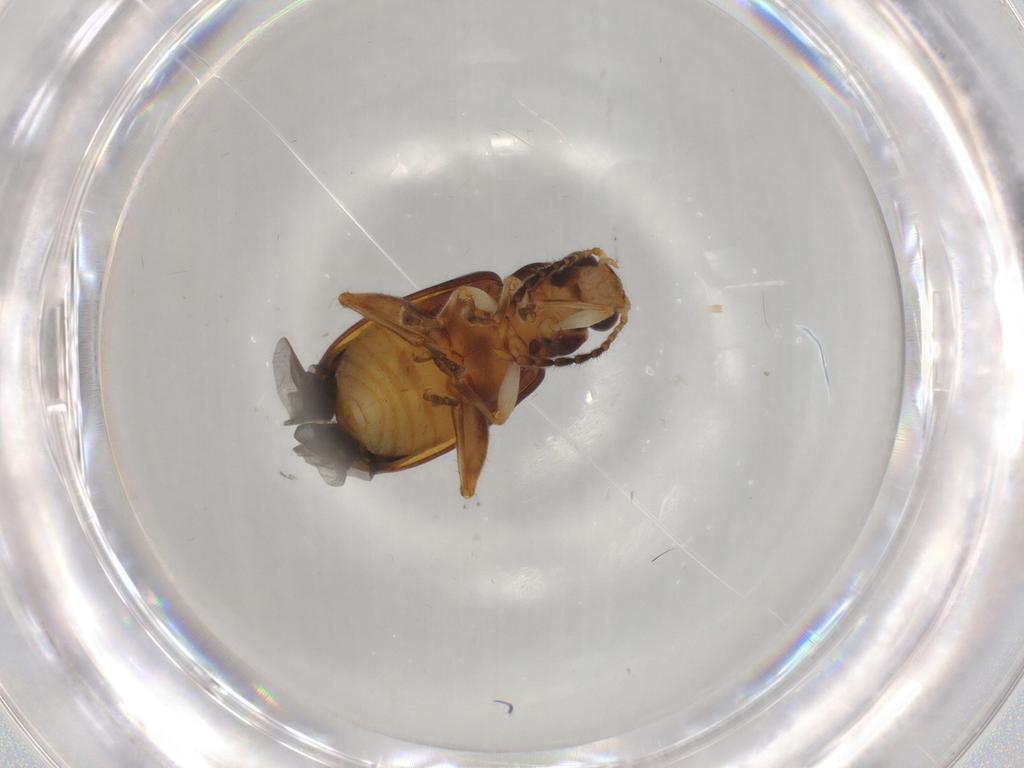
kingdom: Animalia
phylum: Arthropoda
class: Insecta
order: Coleoptera
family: Chrysomelidae
